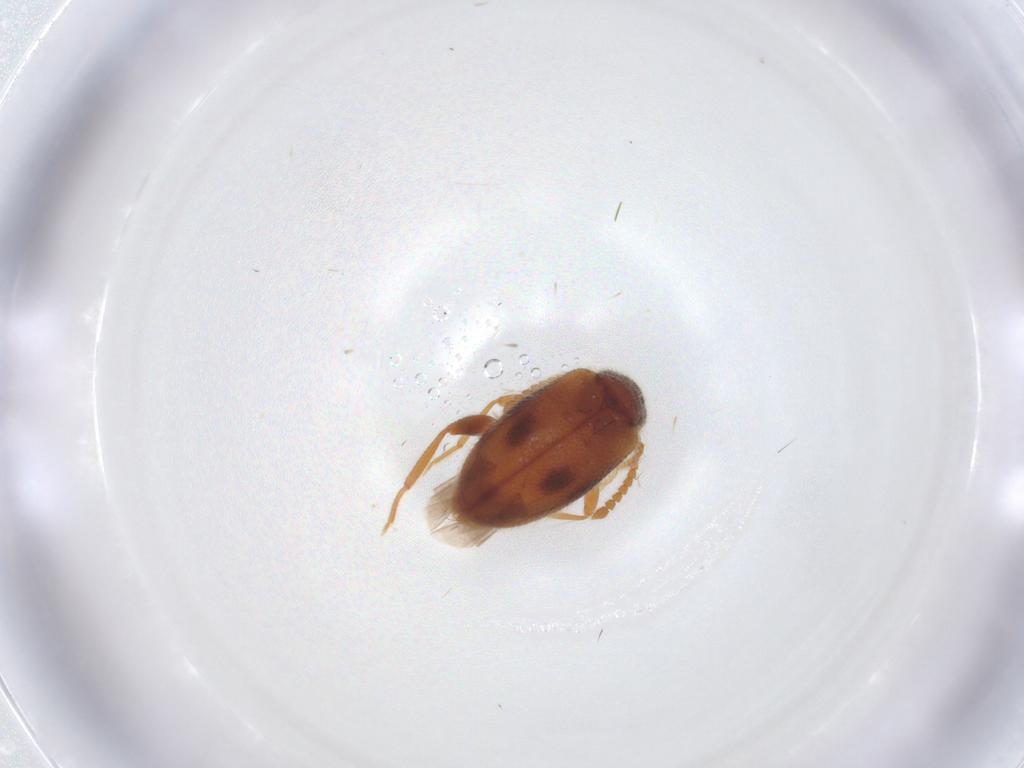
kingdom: Animalia
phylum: Arthropoda
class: Insecta
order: Coleoptera
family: Aderidae
